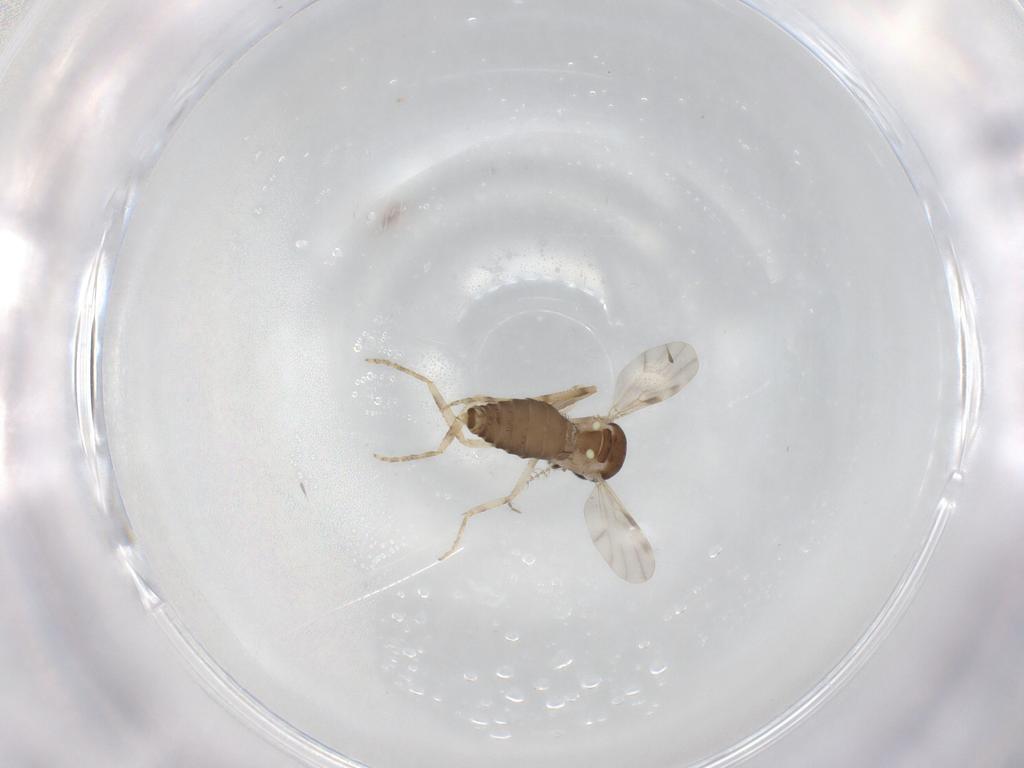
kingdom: Animalia
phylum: Arthropoda
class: Insecta
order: Diptera
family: Ceratopogonidae
